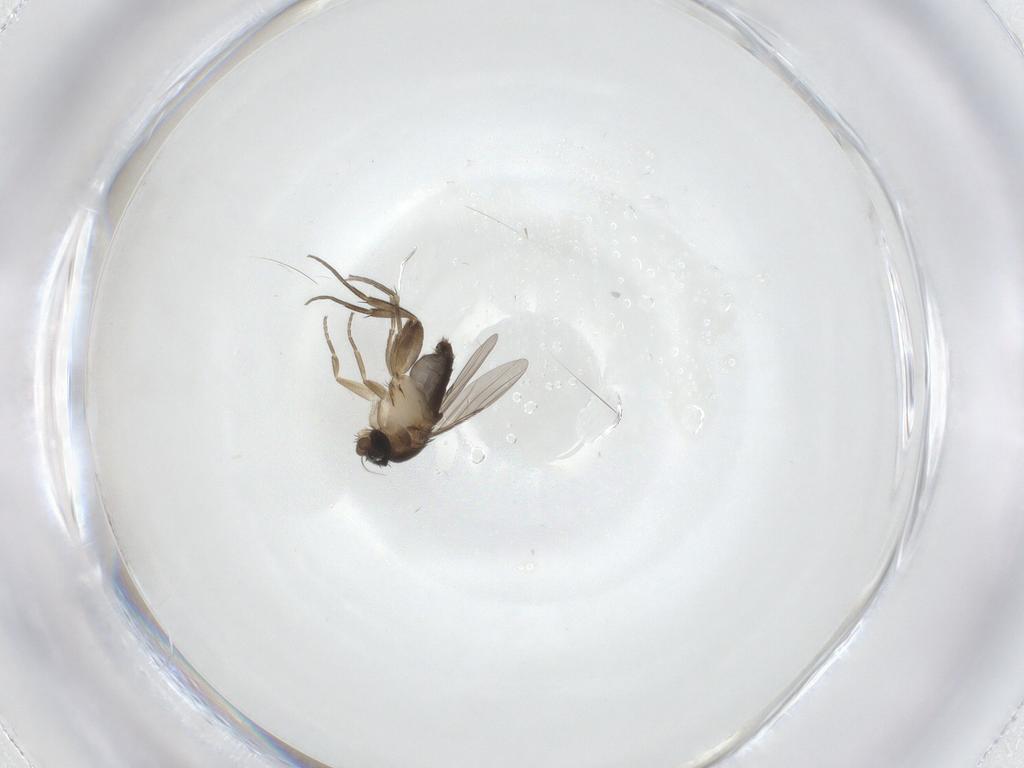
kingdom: Animalia
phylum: Arthropoda
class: Insecta
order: Diptera
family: Phoridae
